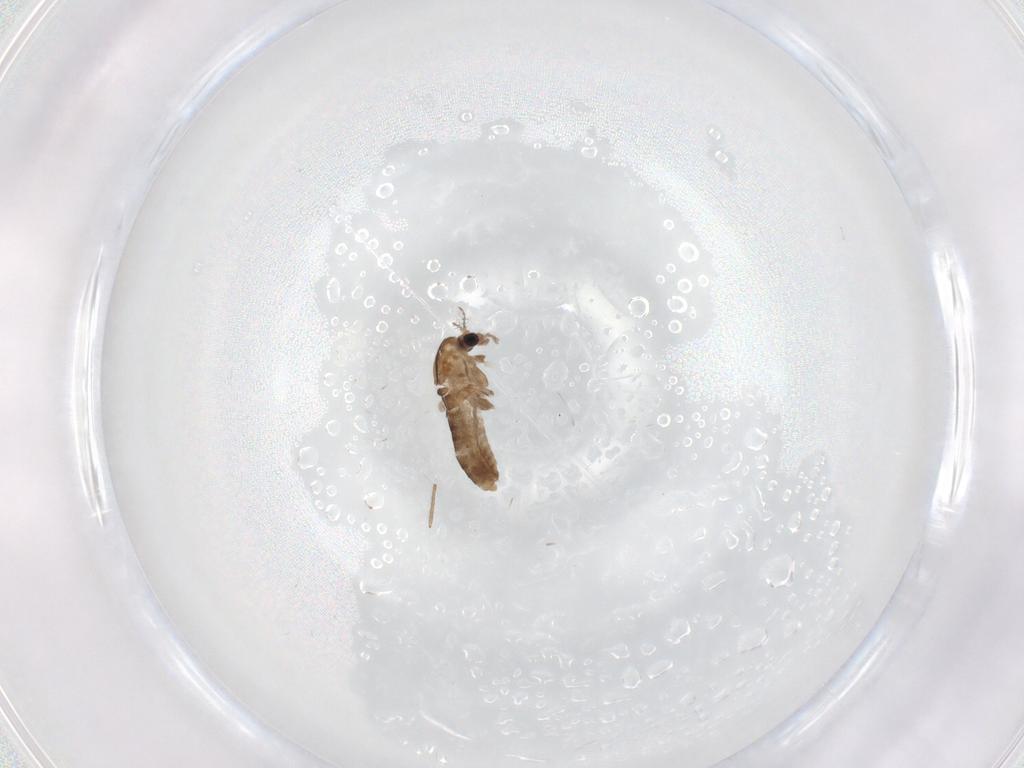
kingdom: Animalia
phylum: Arthropoda
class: Insecta
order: Diptera
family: Chironomidae
